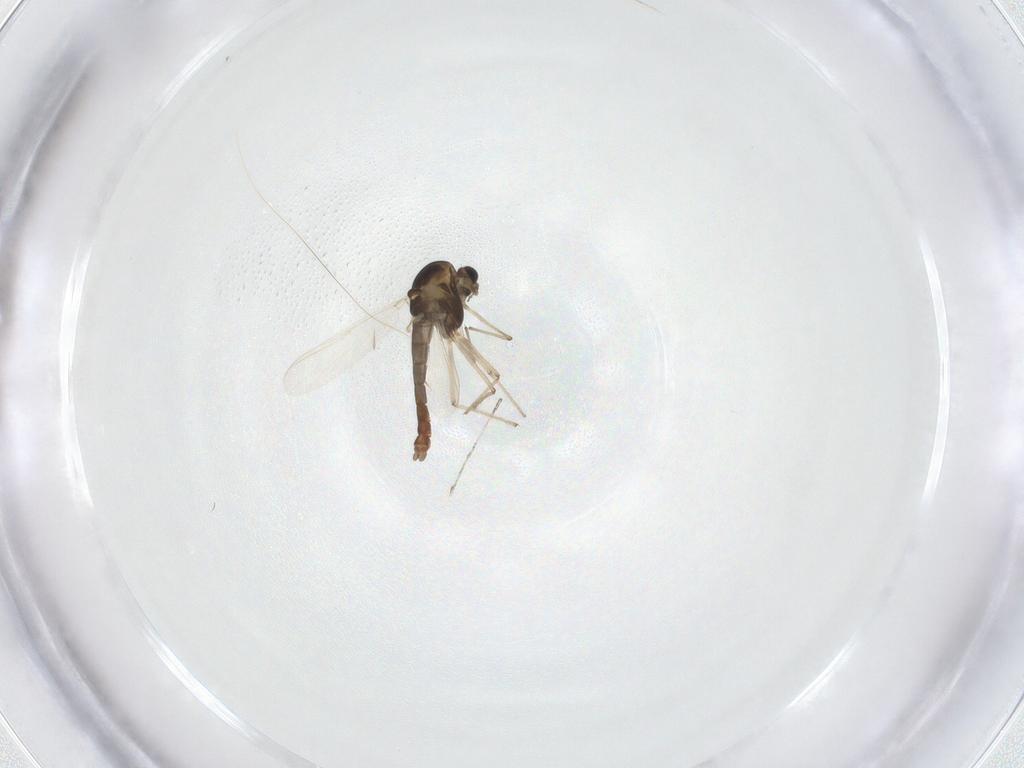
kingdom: Animalia
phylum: Arthropoda
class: Insecta
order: Diptera
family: Cecidomyiidae
